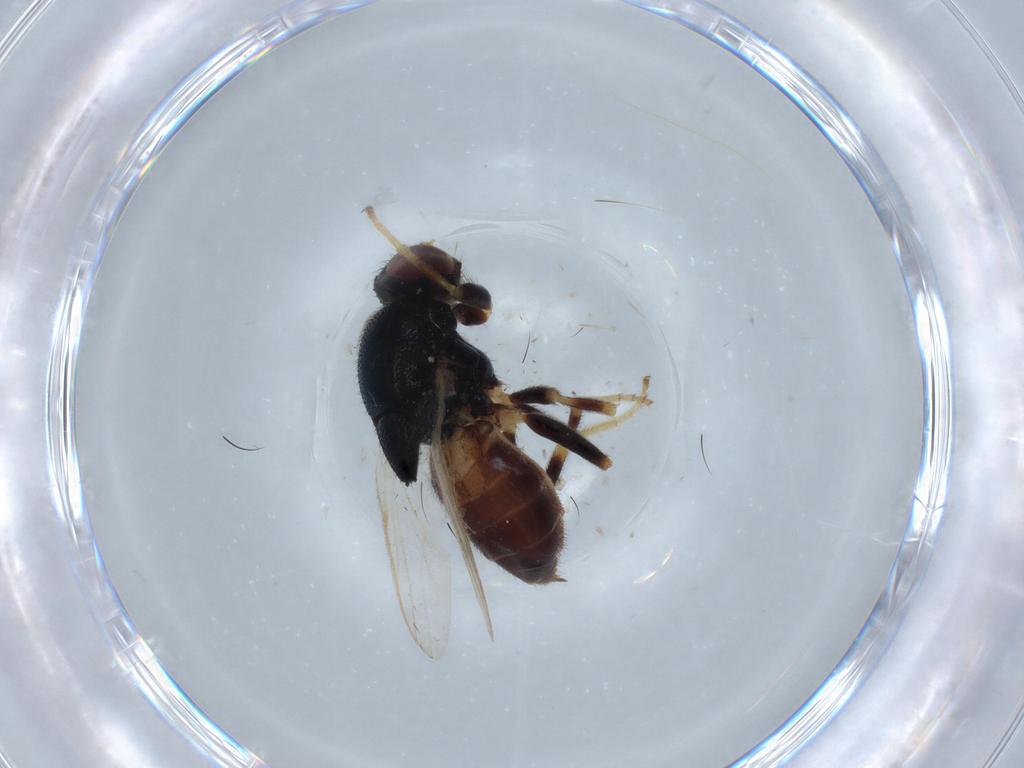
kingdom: Animalia
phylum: Arthropoda
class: Insecta
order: Diptera
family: Chloropidae
